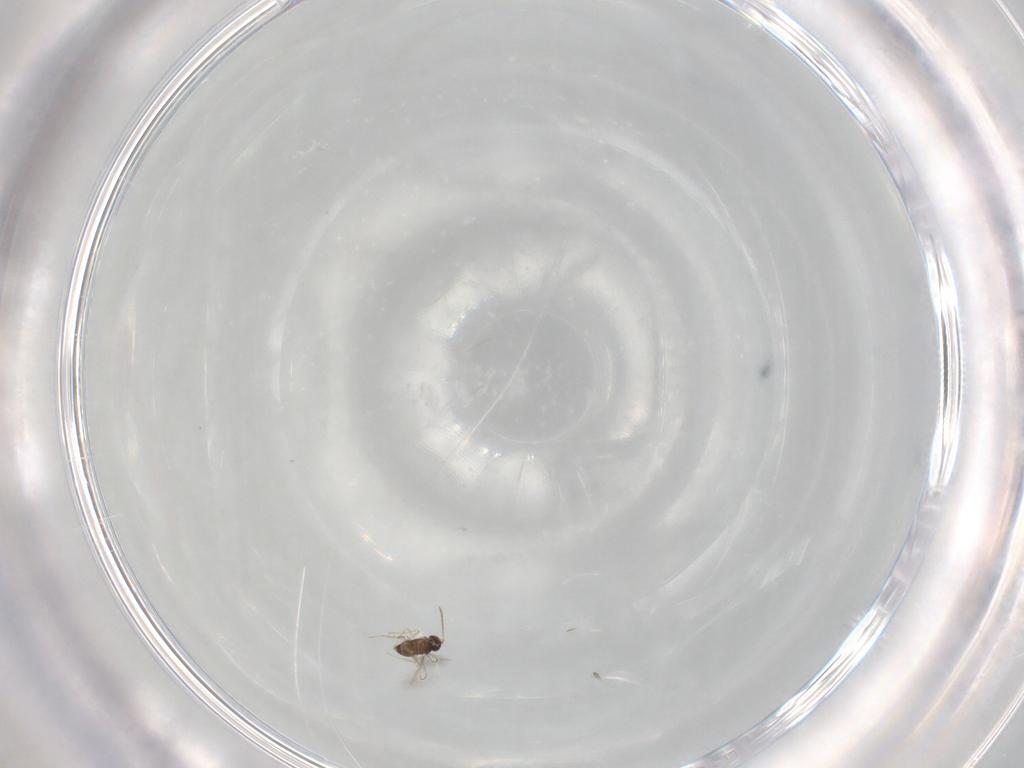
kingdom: Animalia
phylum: Arthropoda
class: Insecta
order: Hymenoptera
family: Mymaridae
